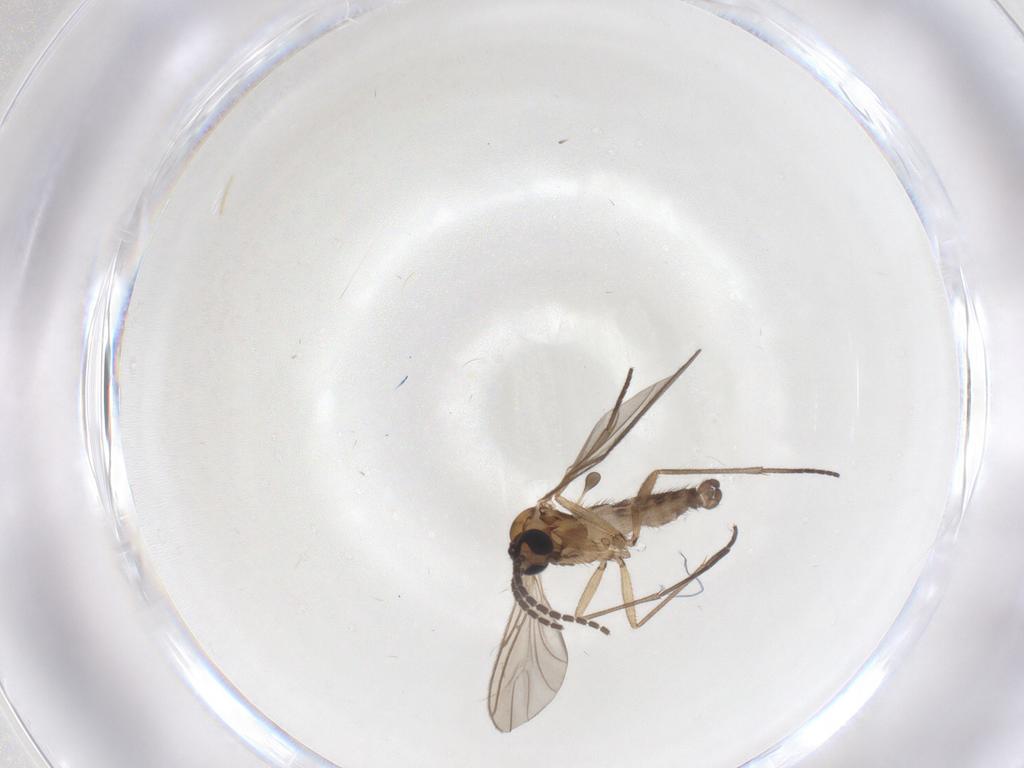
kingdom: Animalia
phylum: Arthropoda
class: Insecta
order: Diptera
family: Sciaridae
